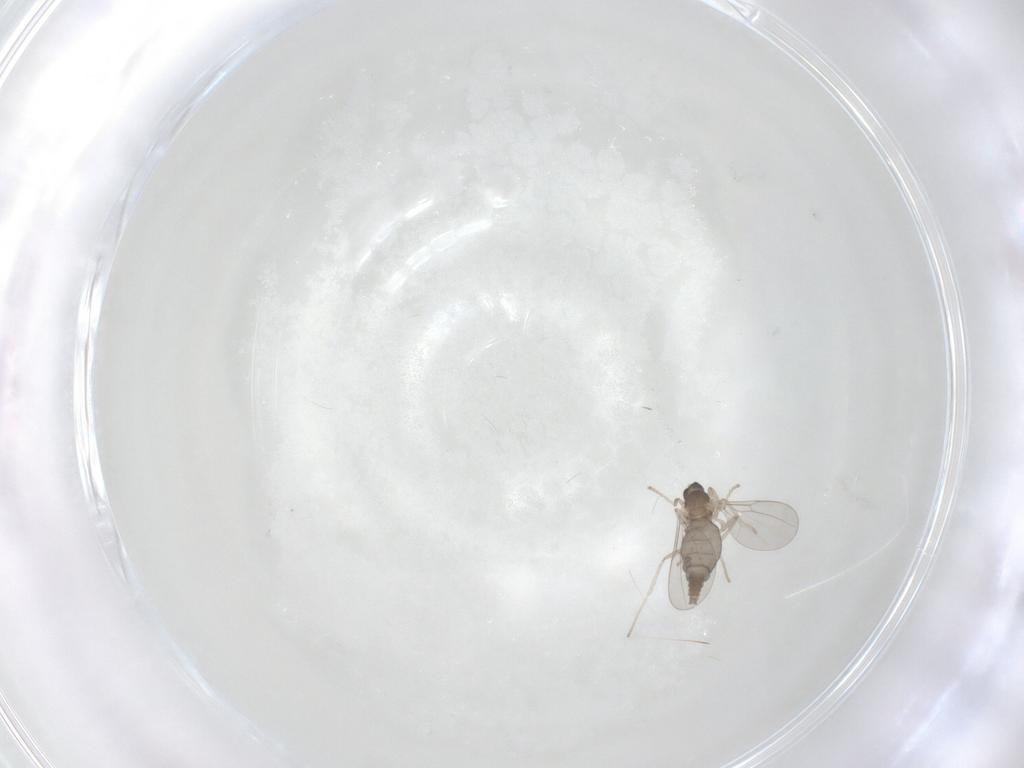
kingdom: Animalia
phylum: Arthropoda
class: Insecta
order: Diptera
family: Cecidomyiidae
